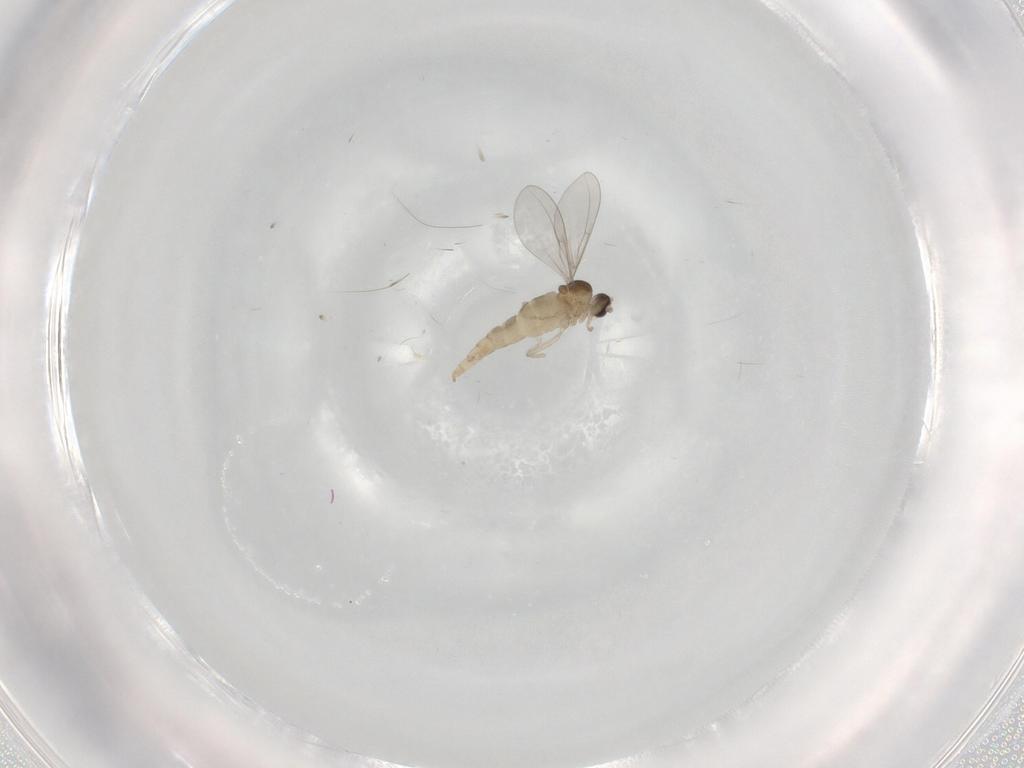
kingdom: Animalia
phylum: Arthropoda
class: Insecta
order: Diptera
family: Cecidomyiidae
